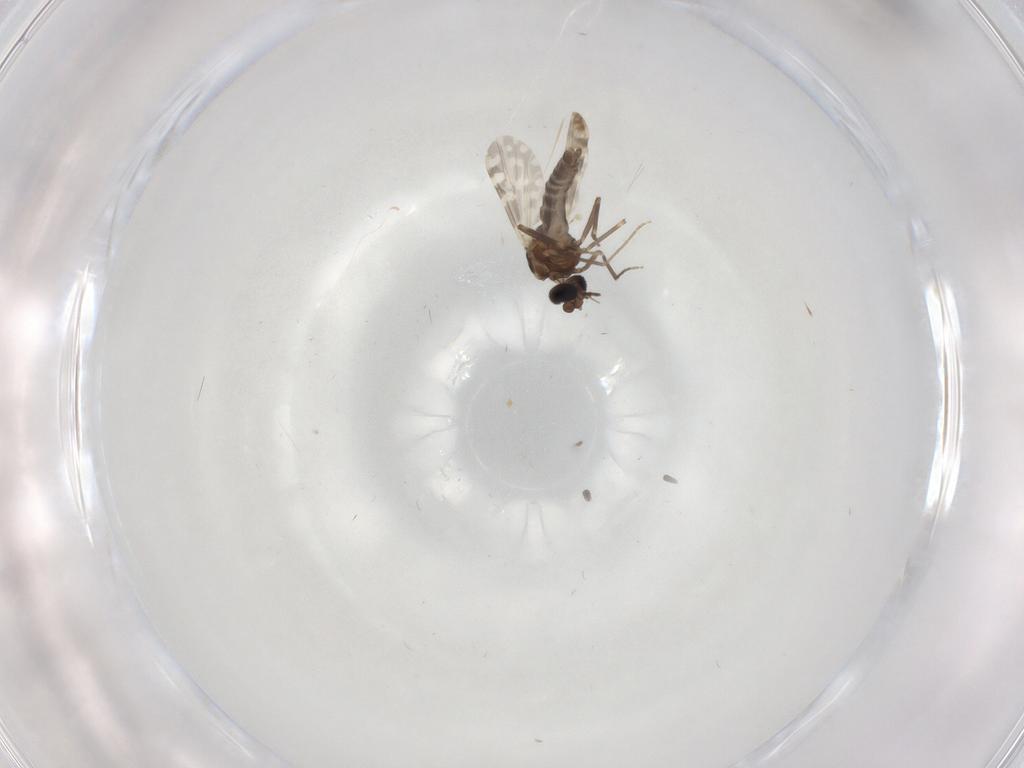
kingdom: Animalia
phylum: Arthropoda
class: Insecta
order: Diptera
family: Ceratopogonidae
